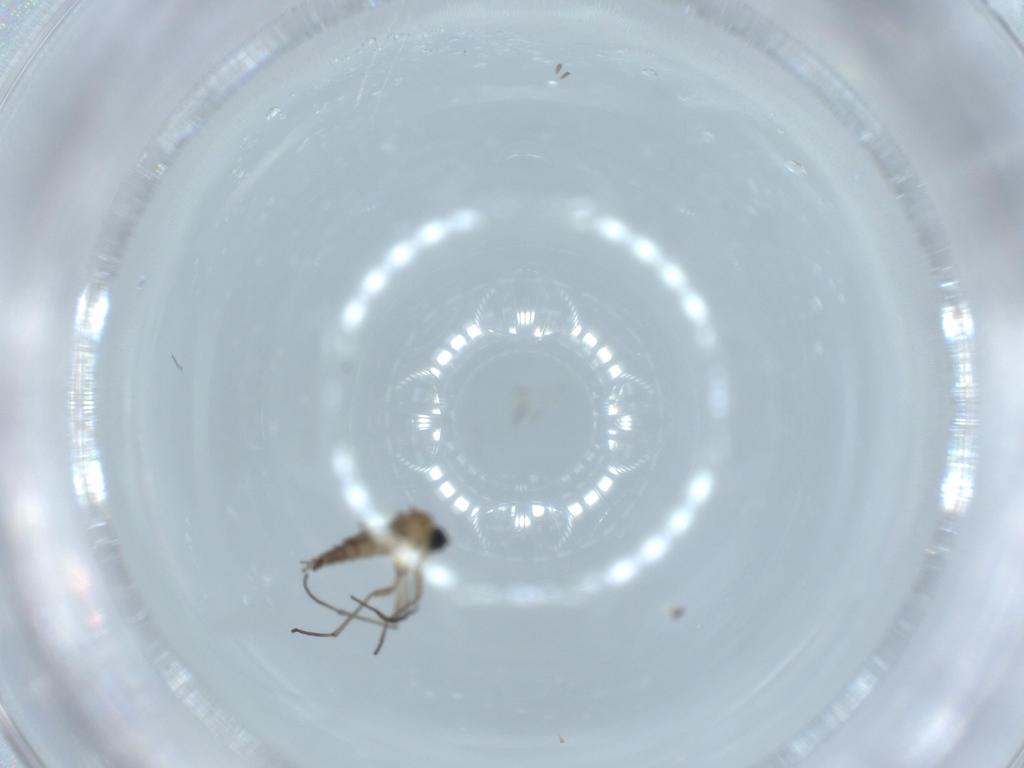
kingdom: Animalia
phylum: Arthropoda
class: Insecta
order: Diptera
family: Sciaridae
